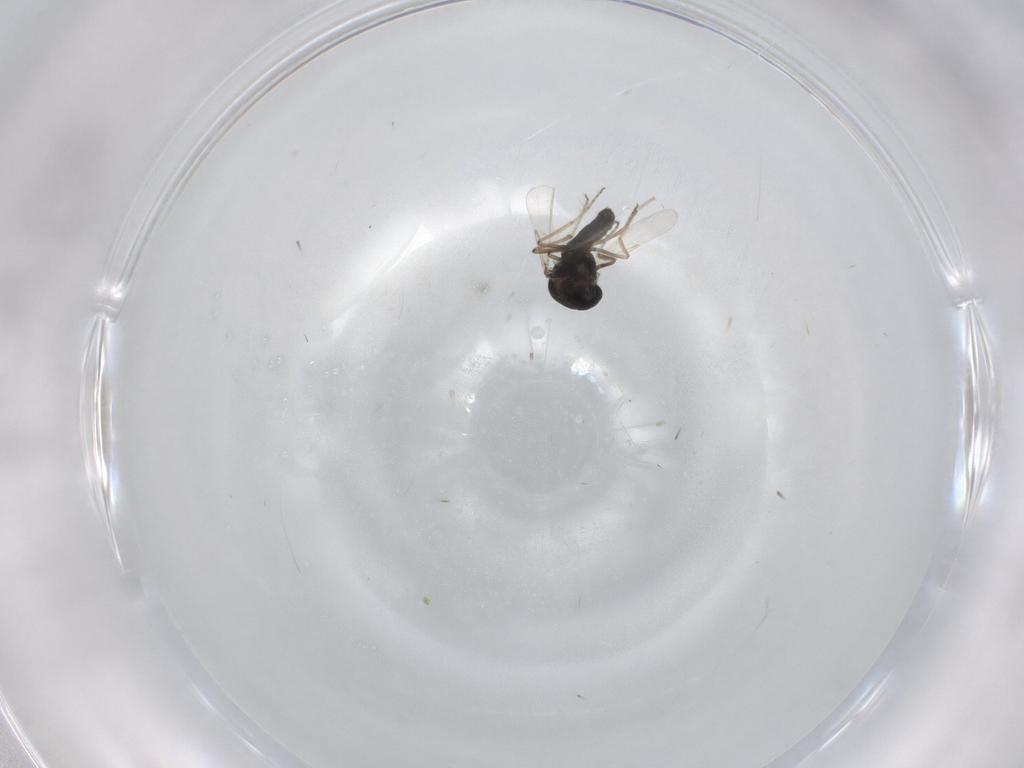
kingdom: Animalia
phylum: Arthropoda
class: Insecta
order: Diptera
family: Ceratopogonidae
